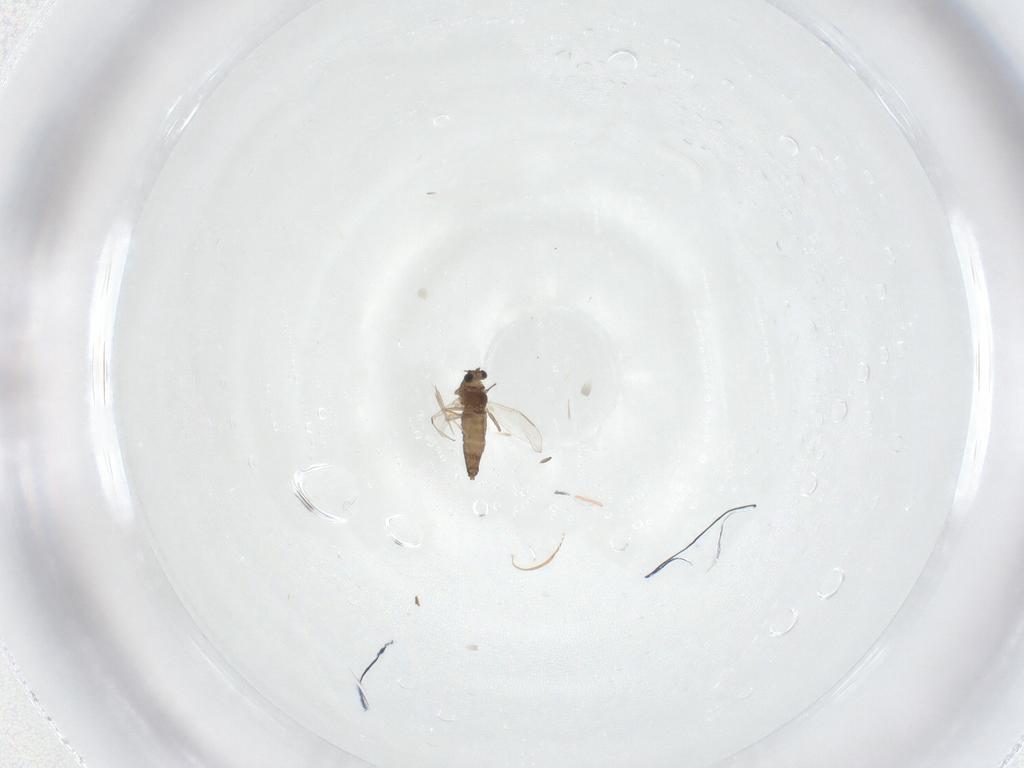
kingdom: Animalia
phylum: Arthropoda
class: Insecta
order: Diptera
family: Chironomidae
